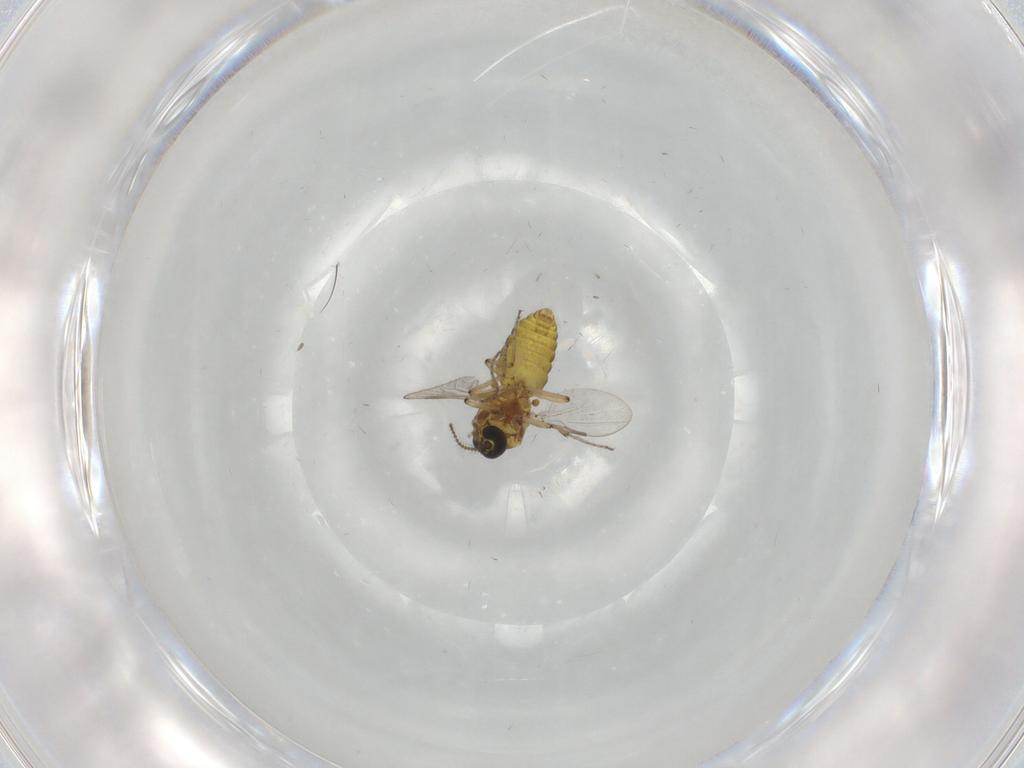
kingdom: Animalia
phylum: Arthropoda
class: Insecta
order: Diptera
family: Ceratopogonidae
